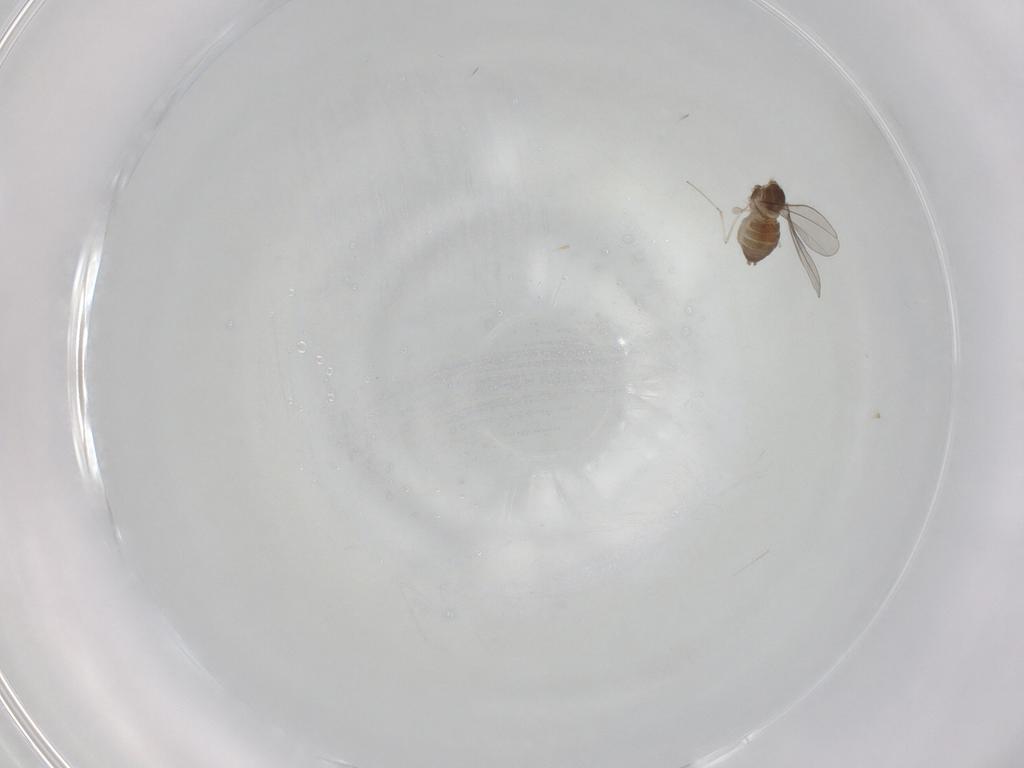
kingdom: Animalia
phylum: Arthropoda
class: Insecta
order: Diptera
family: Cecidomyiidae
